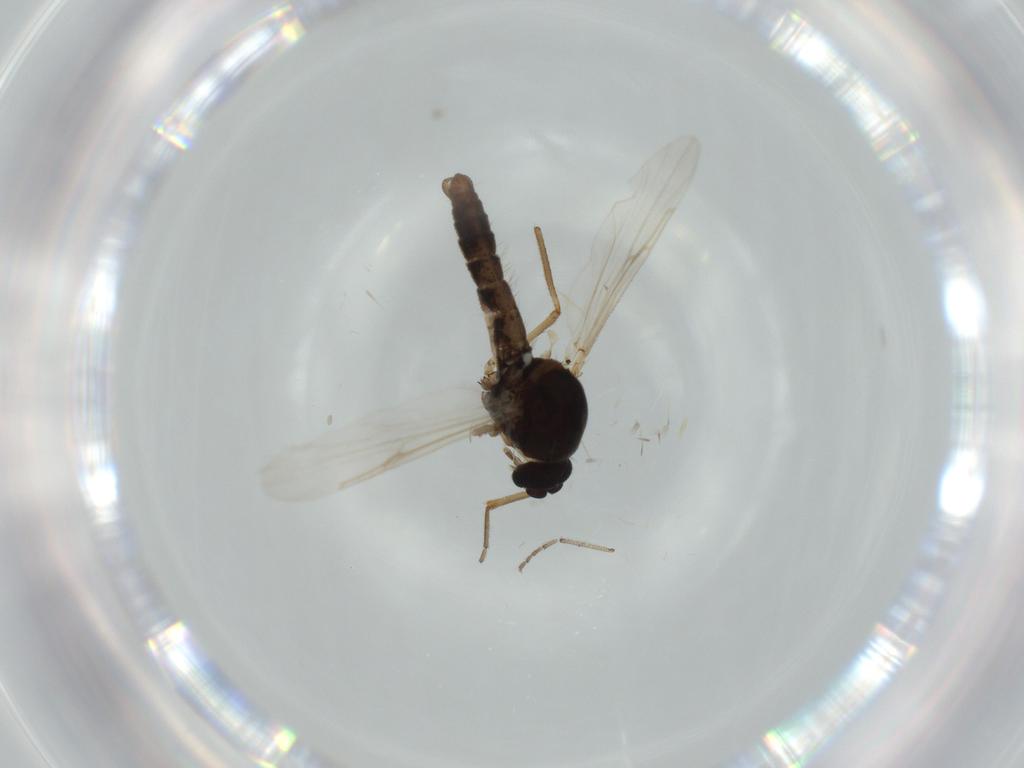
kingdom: Animalia
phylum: Arthropoda
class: Insecta
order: Diptera
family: Ceratopogonidae
